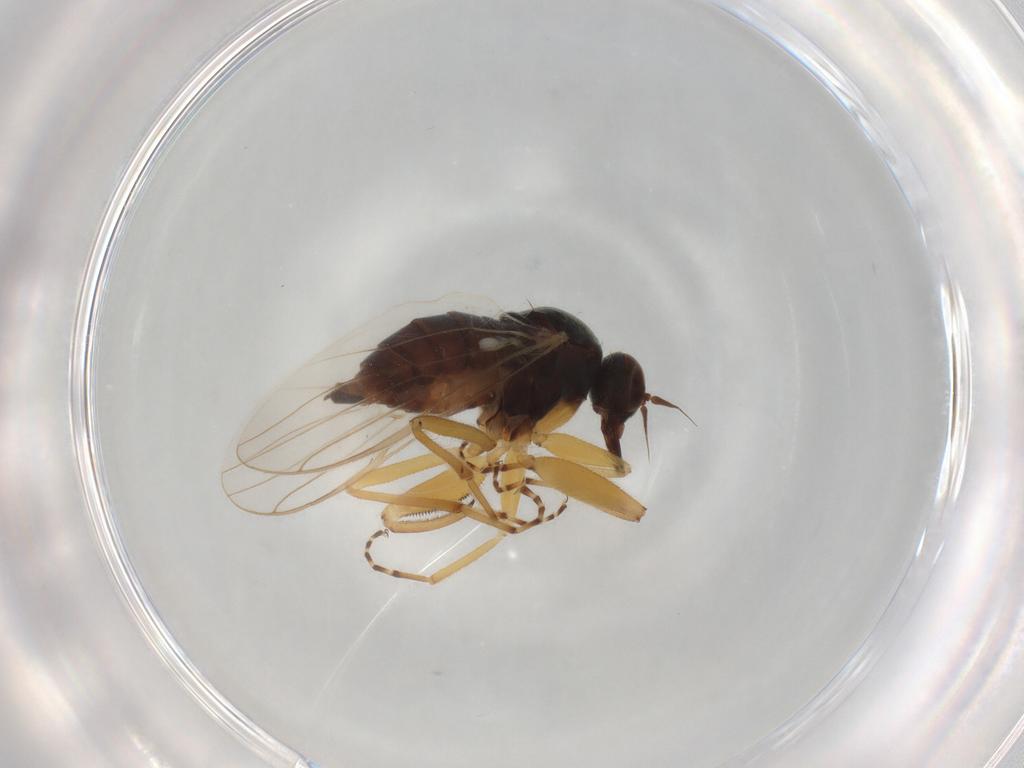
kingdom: Animalia
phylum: Arthropoda
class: Insecta
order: Diptera
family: Hybotidae
